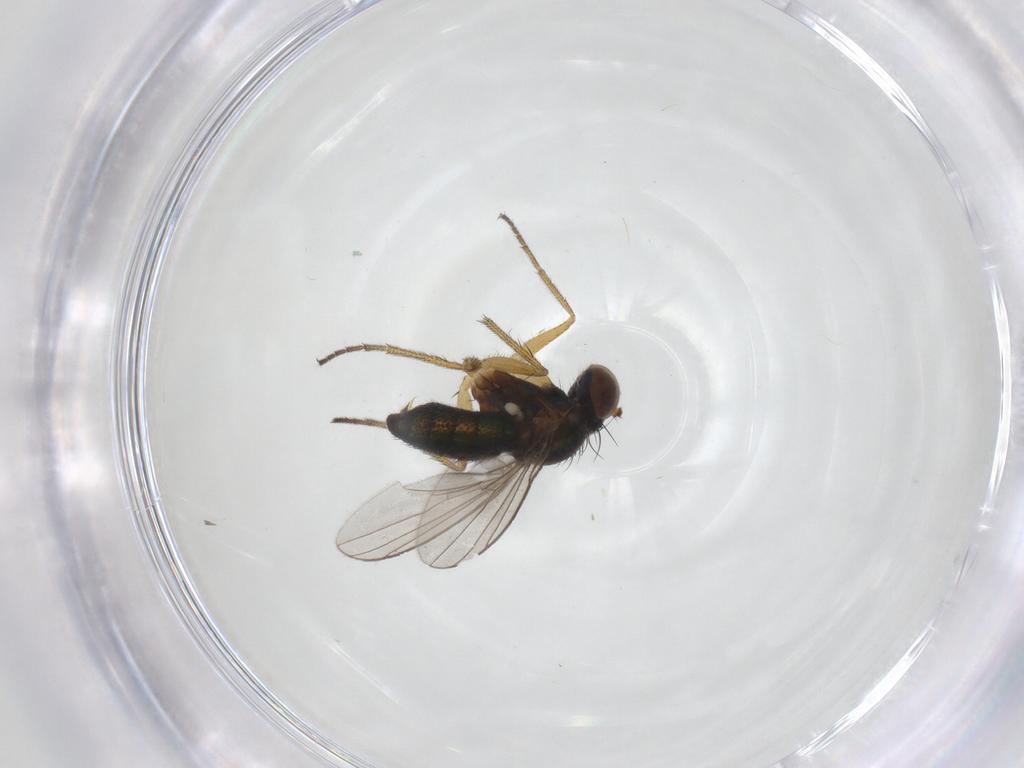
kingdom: Animalia
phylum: Arthropoda
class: Insecta
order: Diptera
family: Dolichopodidae
